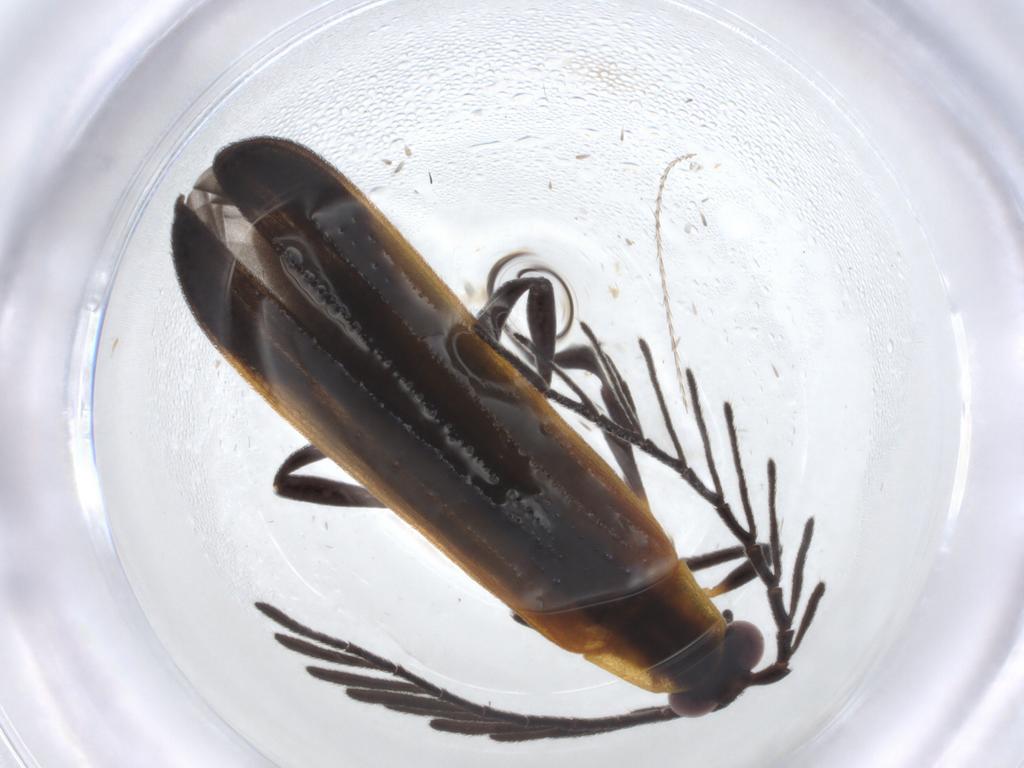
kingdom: Animalia
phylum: Arthropoda
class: Insecta
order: Coleoptera
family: Lycidae
